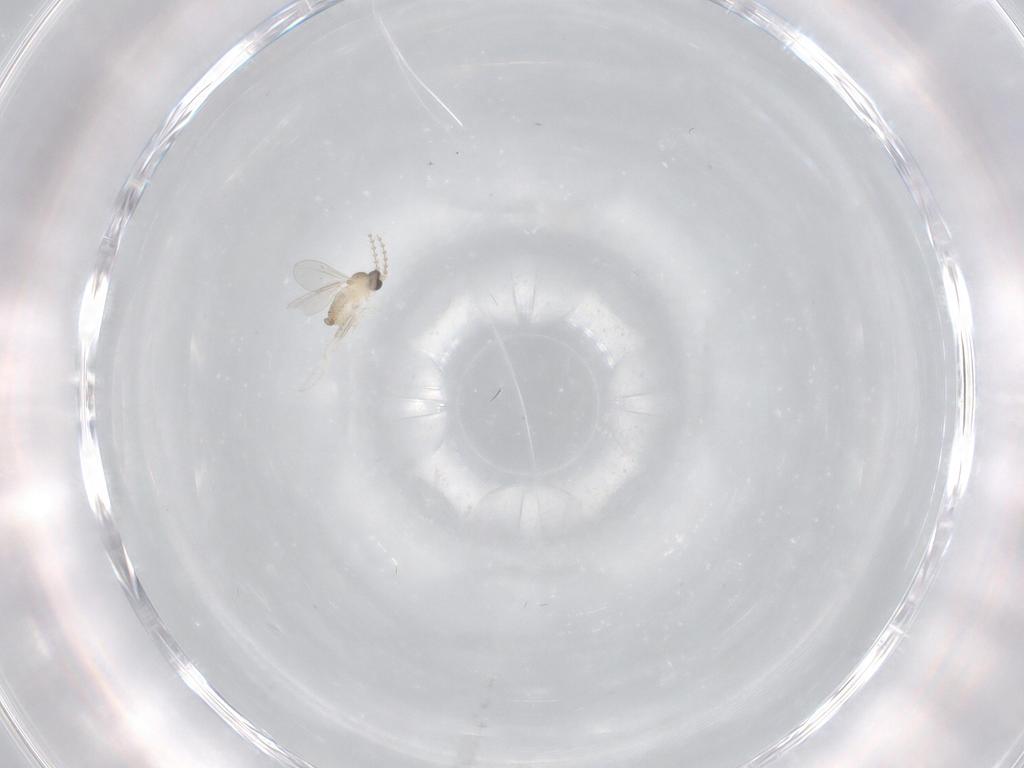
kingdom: Animalia
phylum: Arthropoda
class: Insecta
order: Diptera
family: Cecidomyiidae
